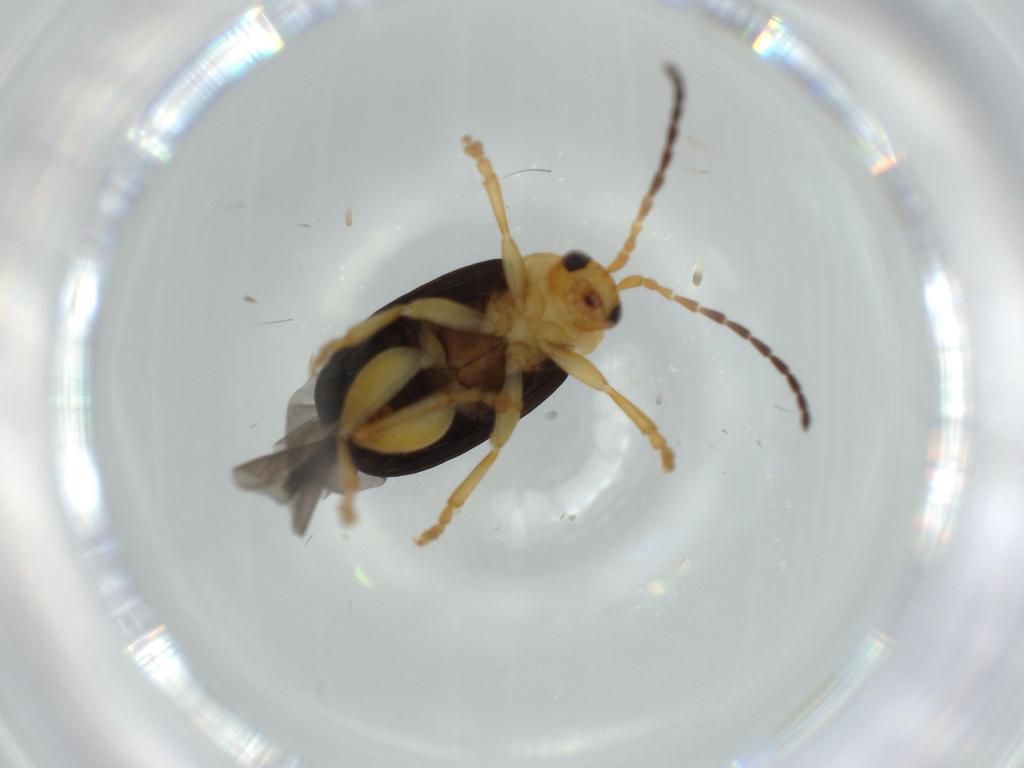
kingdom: Animalia
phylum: Arthropoda
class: Insecta
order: Coleoptera
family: Chrysomelidae
